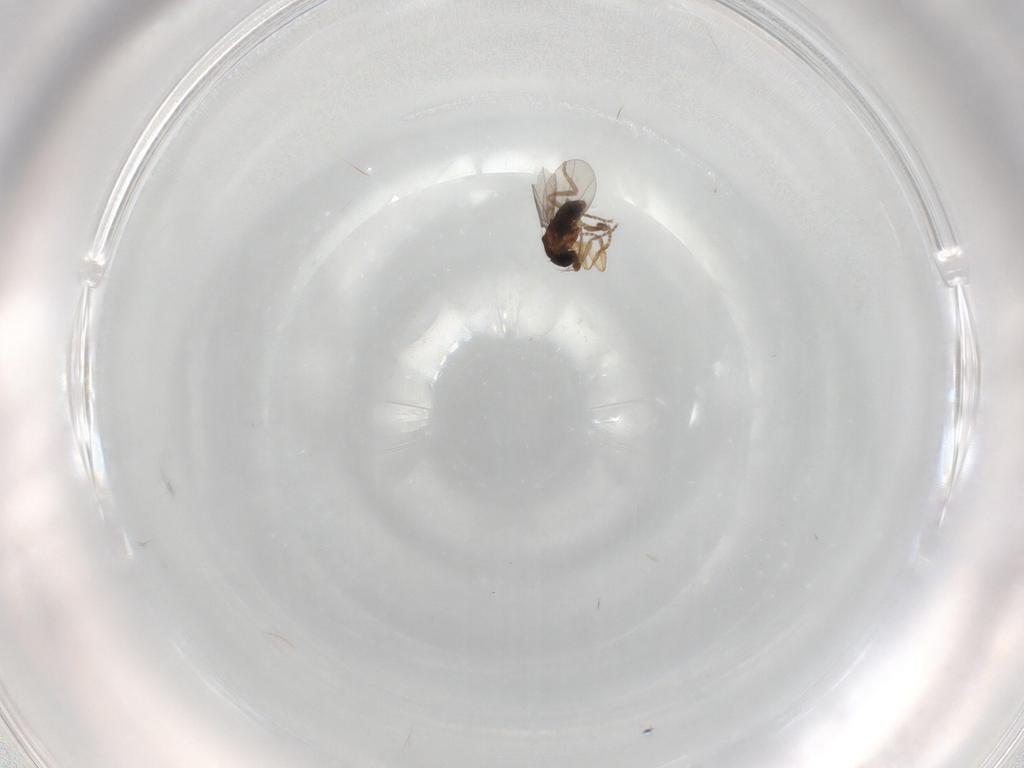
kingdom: Animalia
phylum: Arthropoda
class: Insecta
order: Diptera
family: Phoridae
